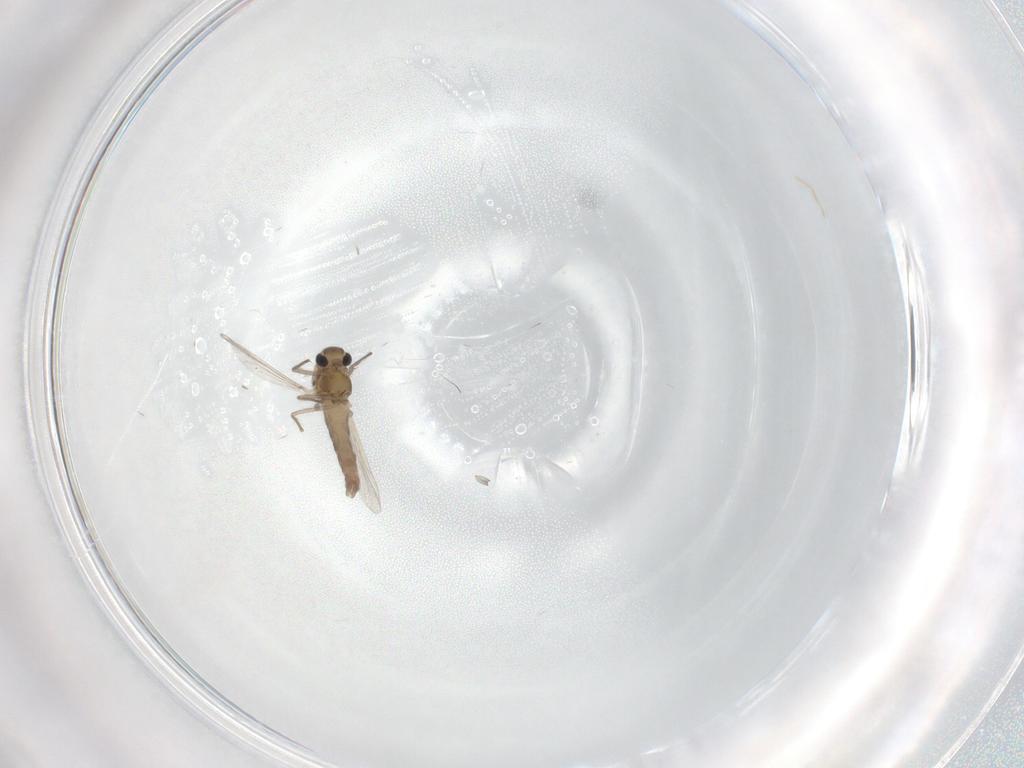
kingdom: Animalia
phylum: Arthropoda
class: Insecta
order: Diptera
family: Chironomidae
